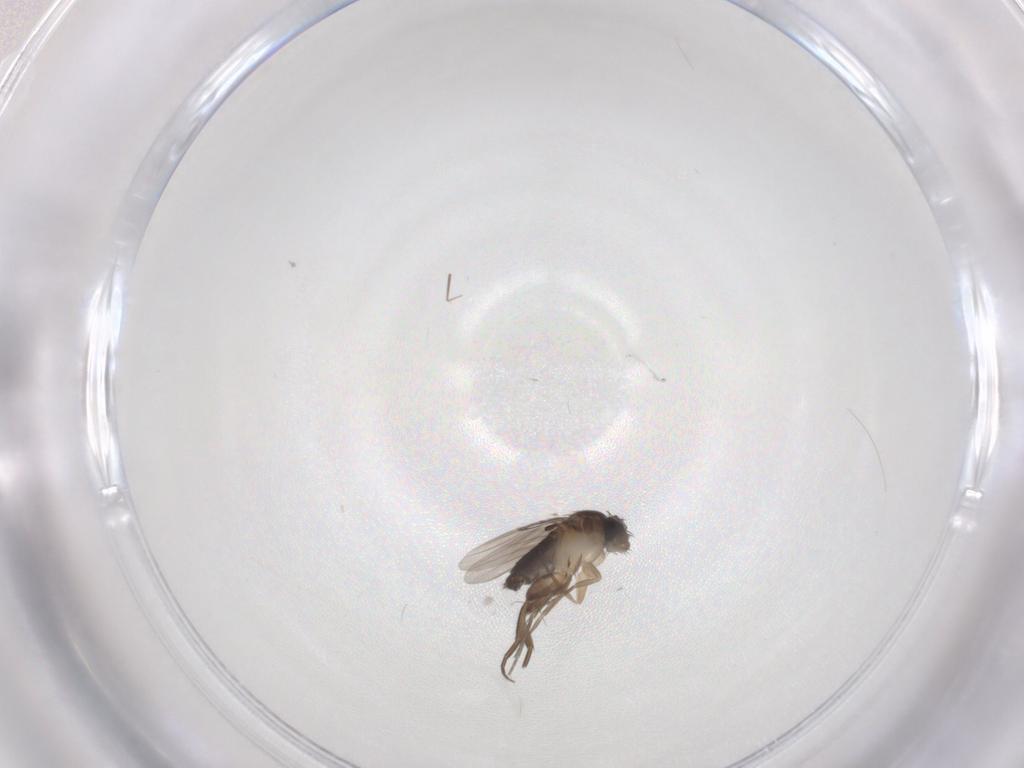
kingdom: Animalia
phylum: Arthropoda
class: Insecta
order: Diptera
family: Phoridae
